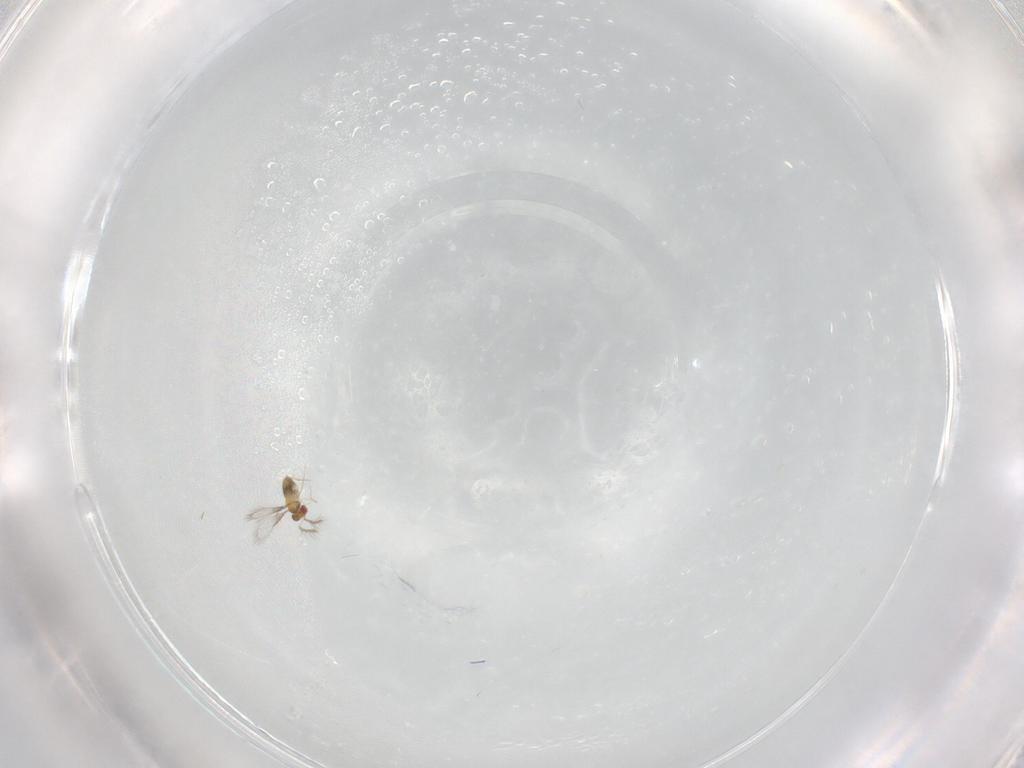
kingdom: Animalia
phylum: Arthropoda
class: Insecta
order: Hymenoptera
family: Trichogrammatidae
